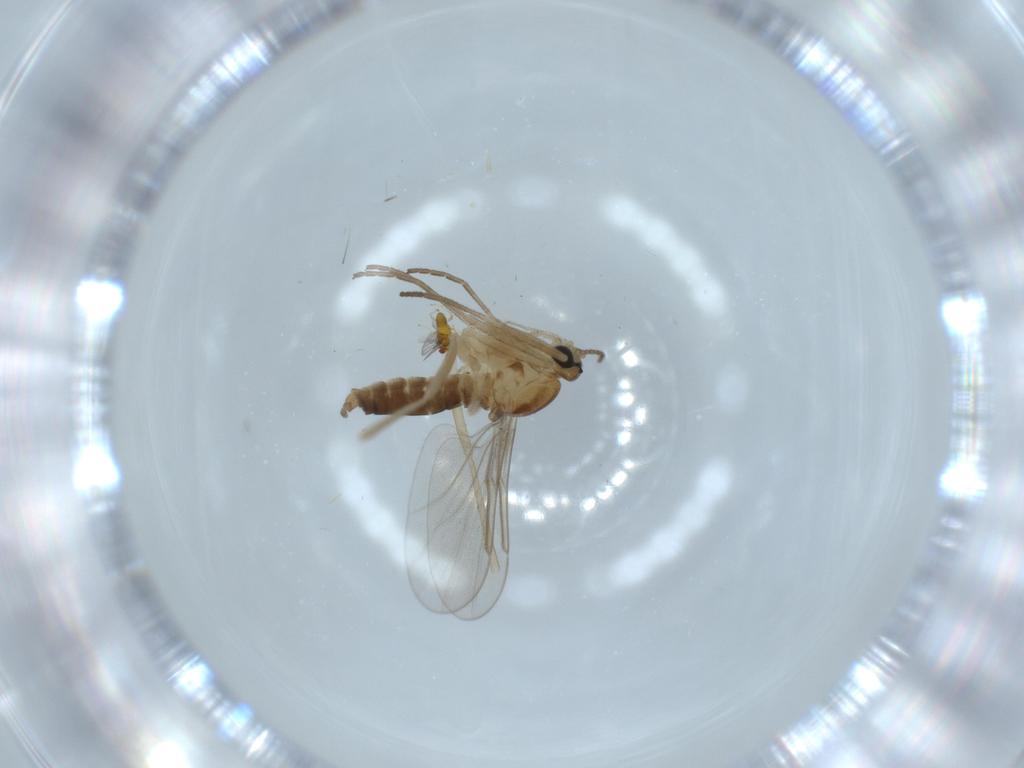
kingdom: Animalia
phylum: Arthropoda
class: Insecta
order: Diptera
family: Cecidomyiidae
